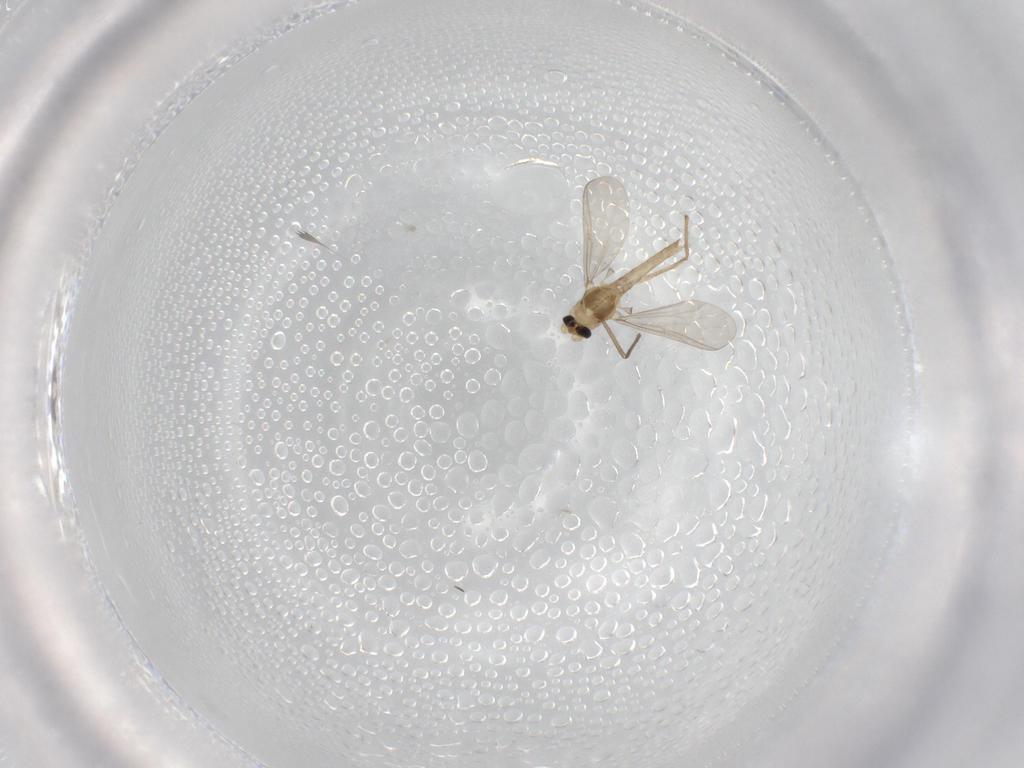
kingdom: Animalia
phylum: Arthropoda
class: Insecta
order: Diptera
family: Chironomidae
